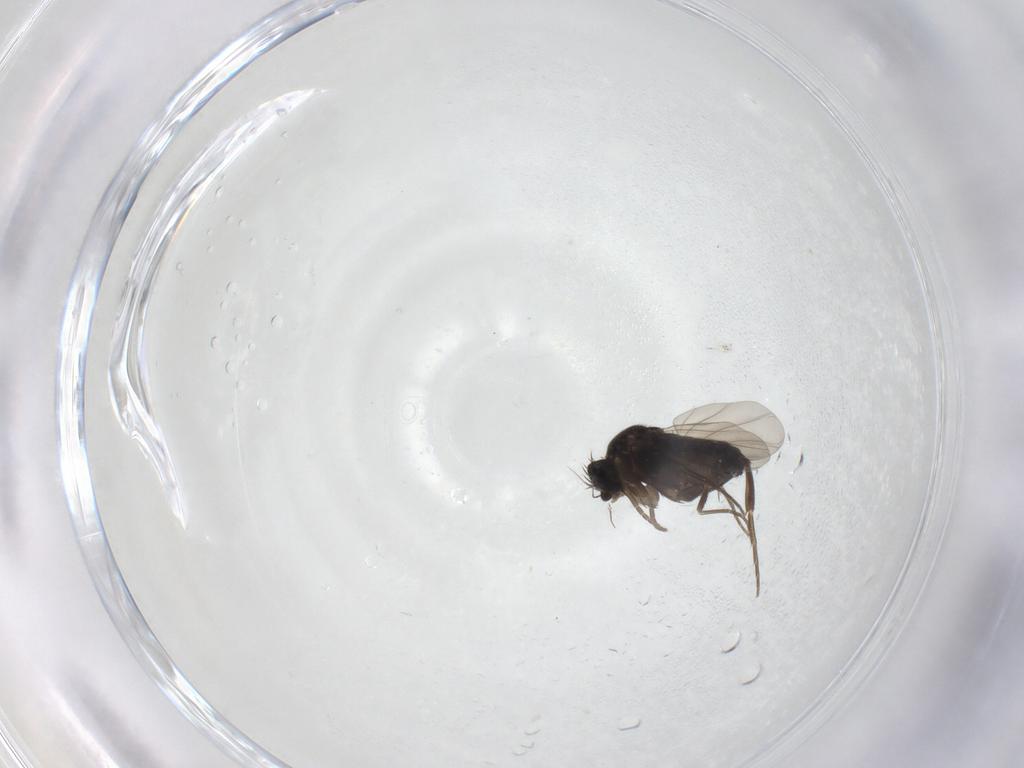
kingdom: Animalia
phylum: Arthropoda
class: Insecta
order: Diptera
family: Phoridae
